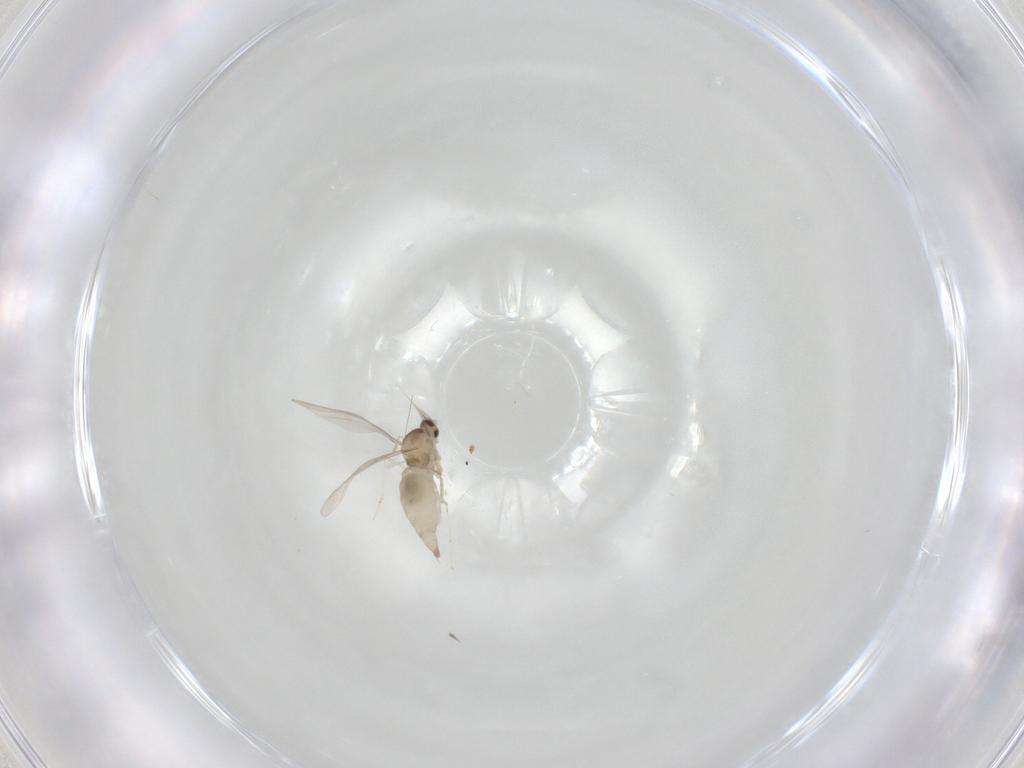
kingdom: Animalia
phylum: Arthropoda
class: Insecta
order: Diptera
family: Cecidomyiidae
